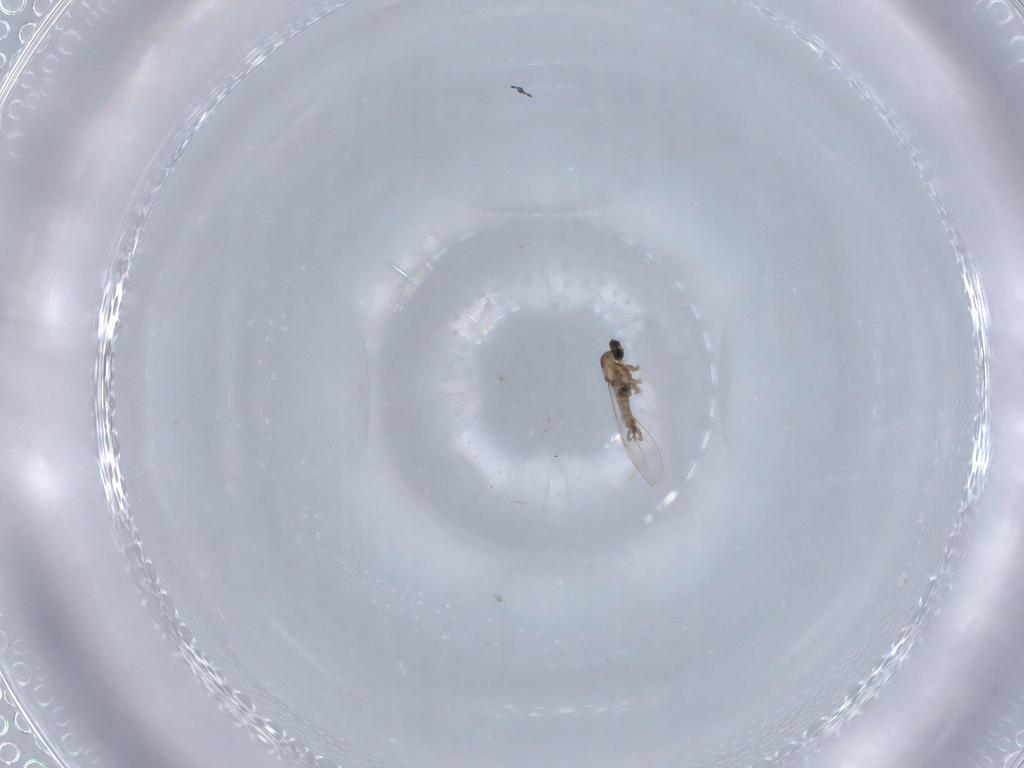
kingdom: Animalia
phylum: Arthropoda
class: Insecta
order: Diptera
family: Cecidomyiidae
